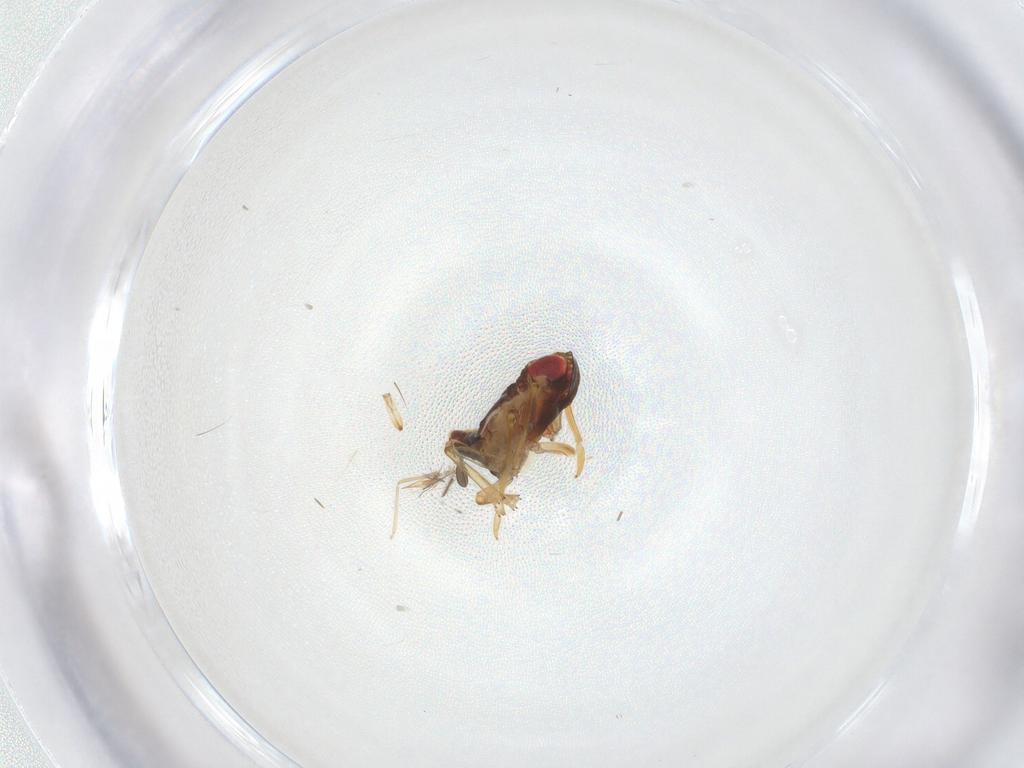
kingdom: Animalia
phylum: Arthropoda
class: Insecta
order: Hemiptera
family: Fulgoroidea_incertae_sedis
